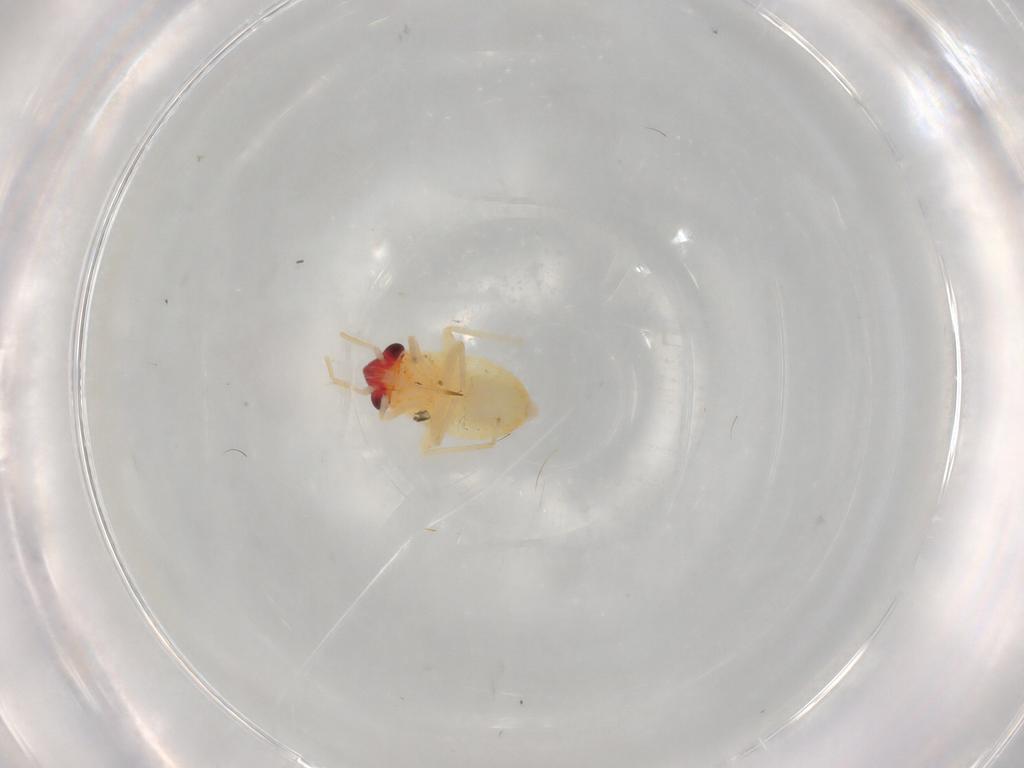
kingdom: Animalia
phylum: Arthropoda
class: Insecta
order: Hemiptera
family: Miridae
